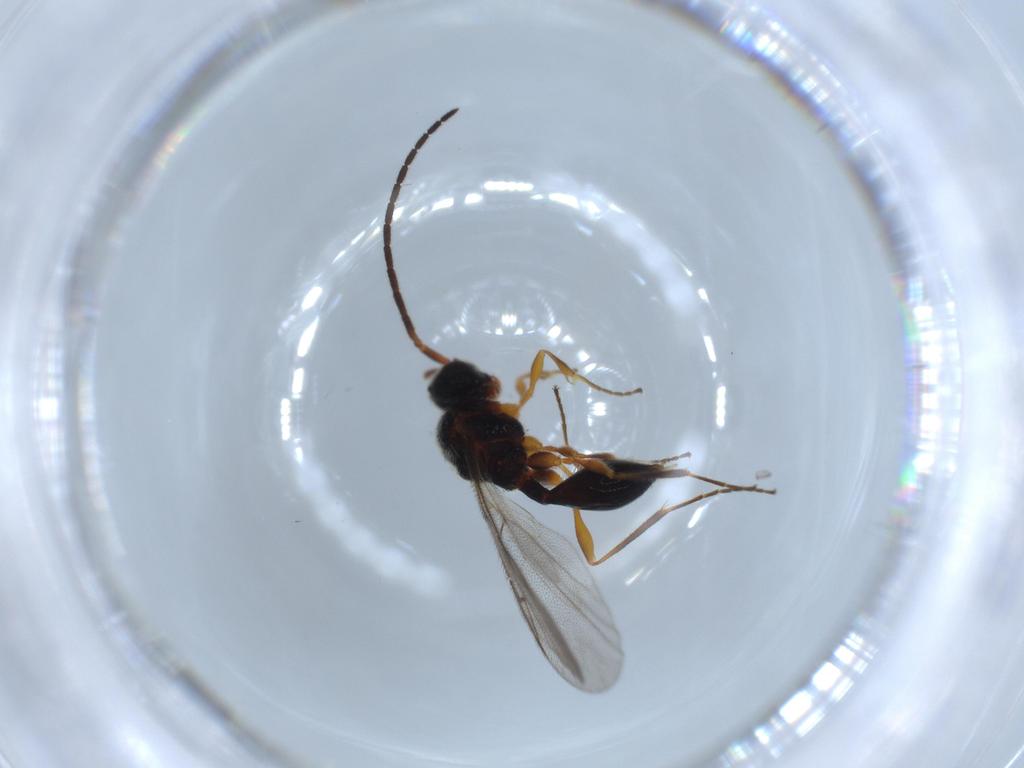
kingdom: Animalia
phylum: Arthropoda
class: Insecta
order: Hymenoptera
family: Diapriidae
